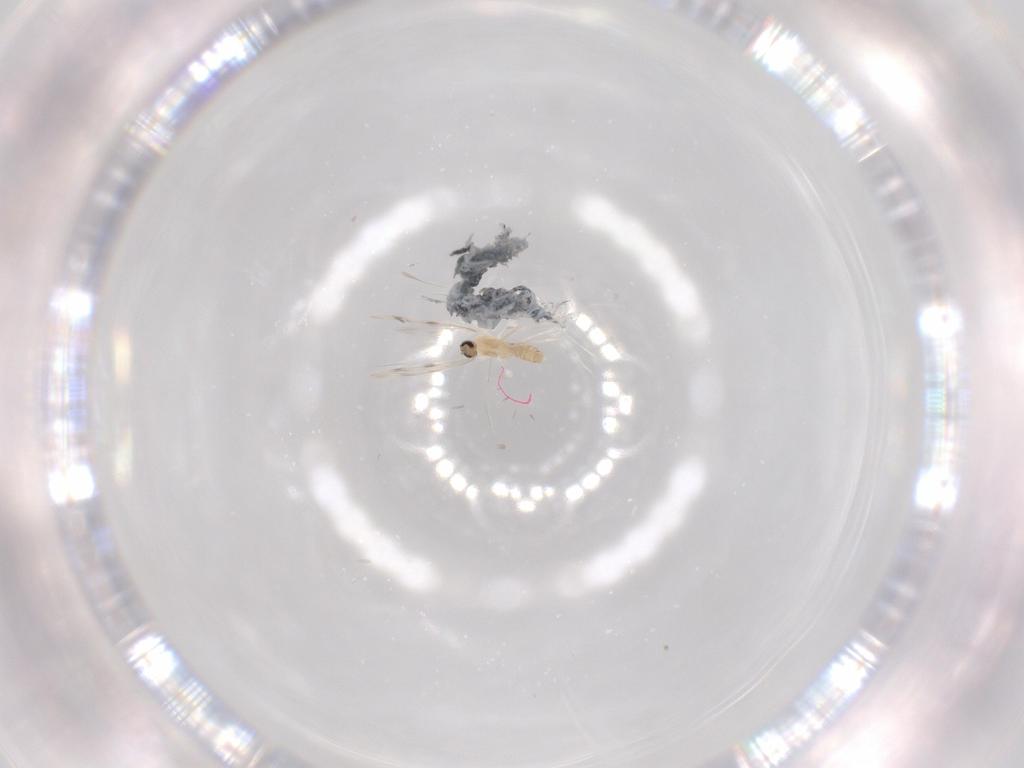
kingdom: Animalia
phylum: Arthropoda
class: Insecta
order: Diptera
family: Cecidomyiidae
